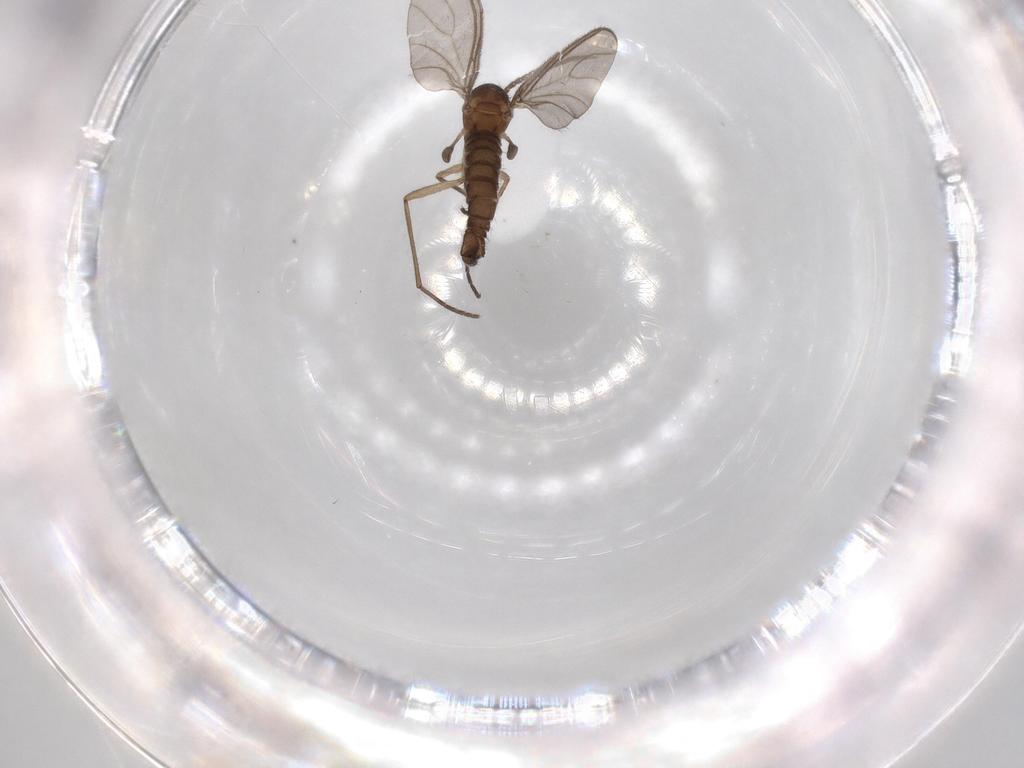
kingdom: Animalia
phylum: Arthropoda
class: Insecta
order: Diptera
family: Sciaridae
